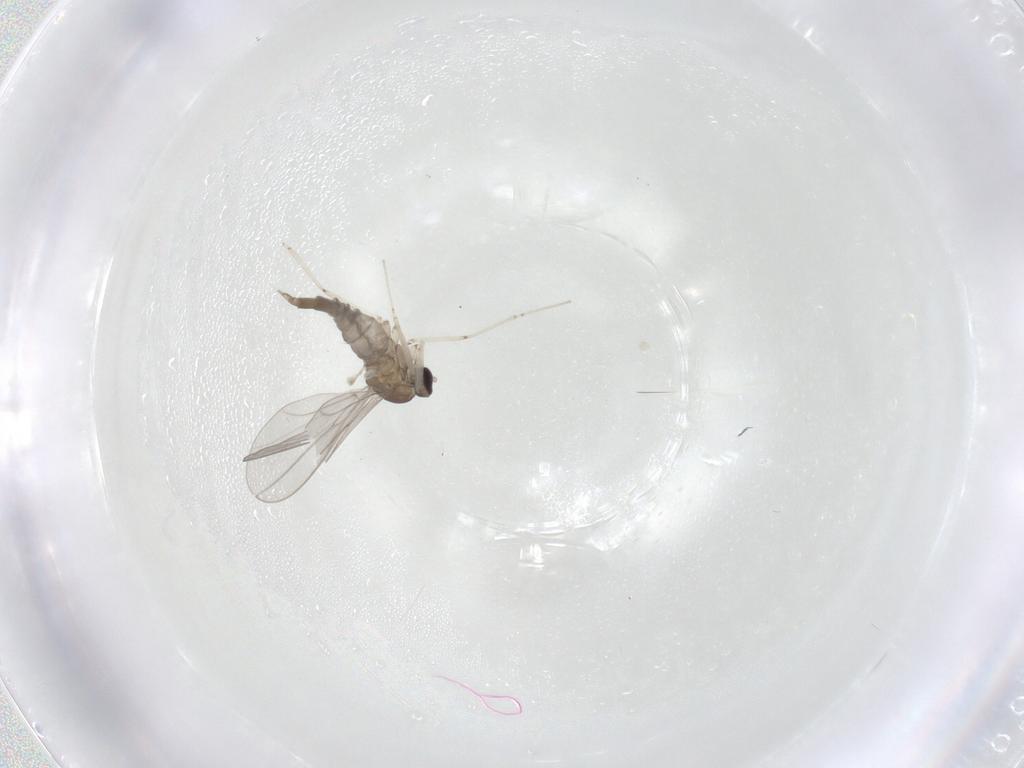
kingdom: Animalia
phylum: Arthropoda
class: Insecta
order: Diptera
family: Cecidomyiidae
